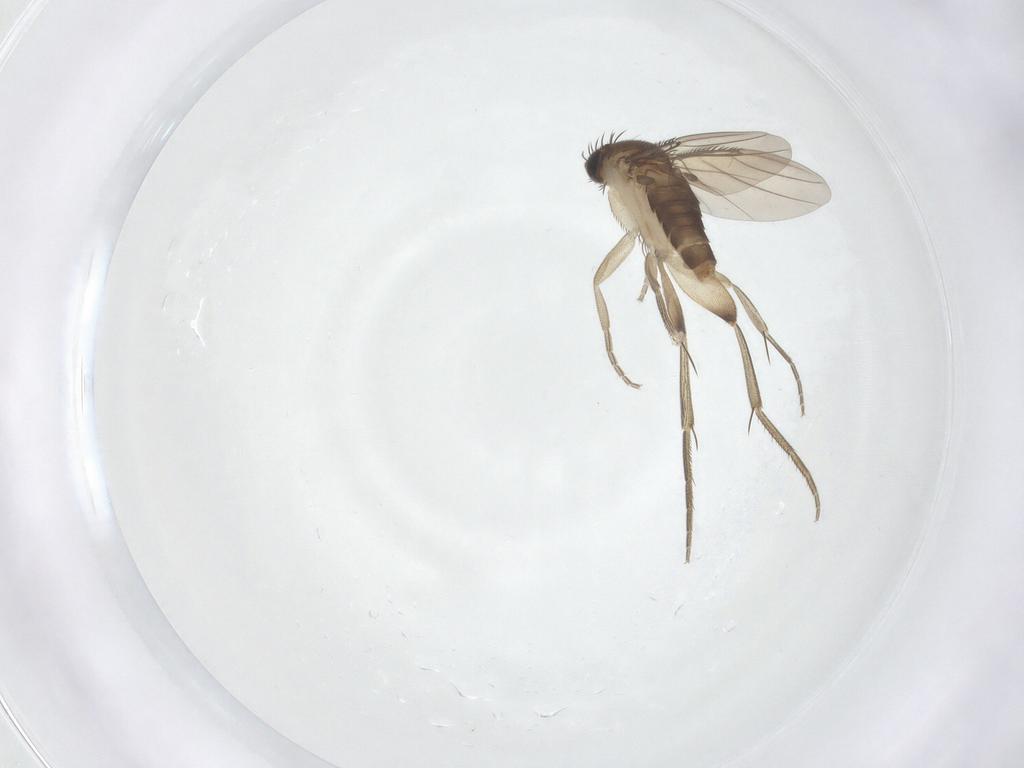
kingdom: Animalia
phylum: Arthropoda
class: Insecta
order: Diptera
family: Phoridae
